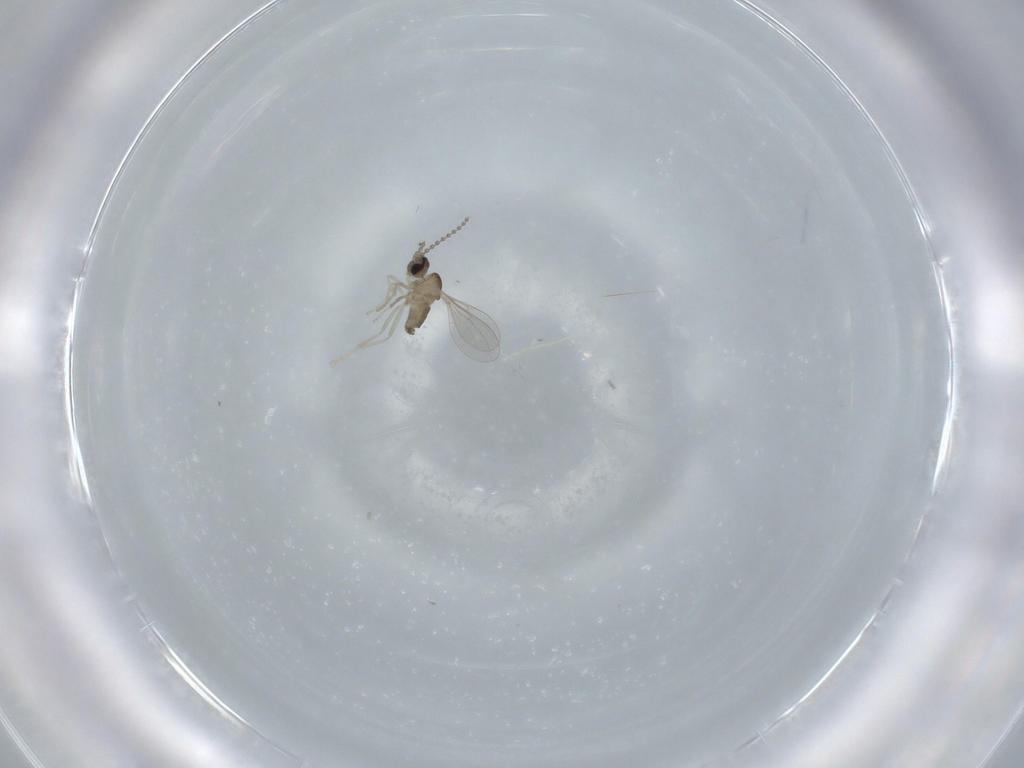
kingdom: Animalia
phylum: Arthropoda
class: Insecta
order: Diptera
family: Cecidomyiidae
